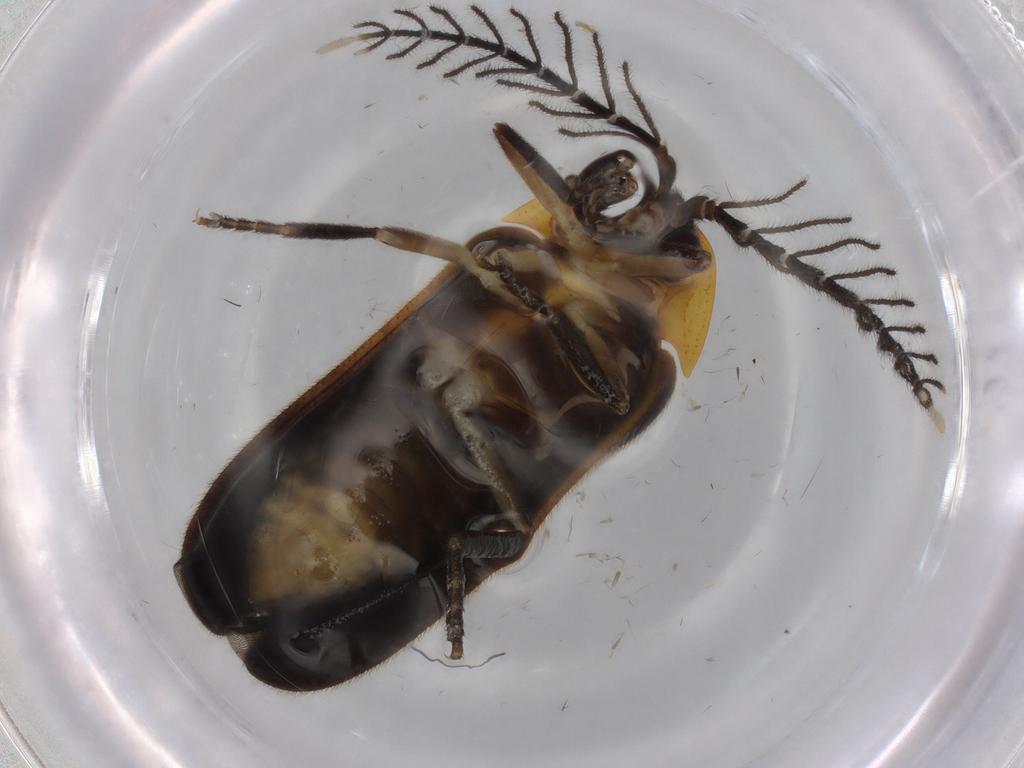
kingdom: Animalia
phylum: Arthropoda
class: Insecta
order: Coleoptera
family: Lampyridae
